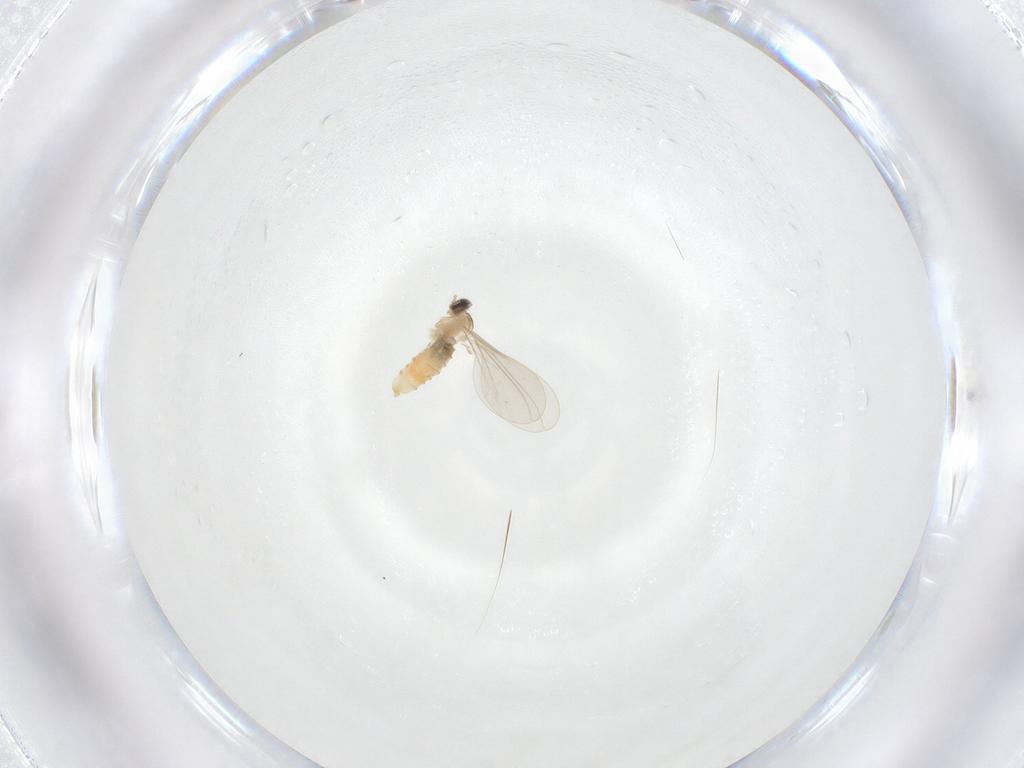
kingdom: Animalia
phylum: Arthropoda
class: Insecta
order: Diptera
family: Cecidomyiidae
